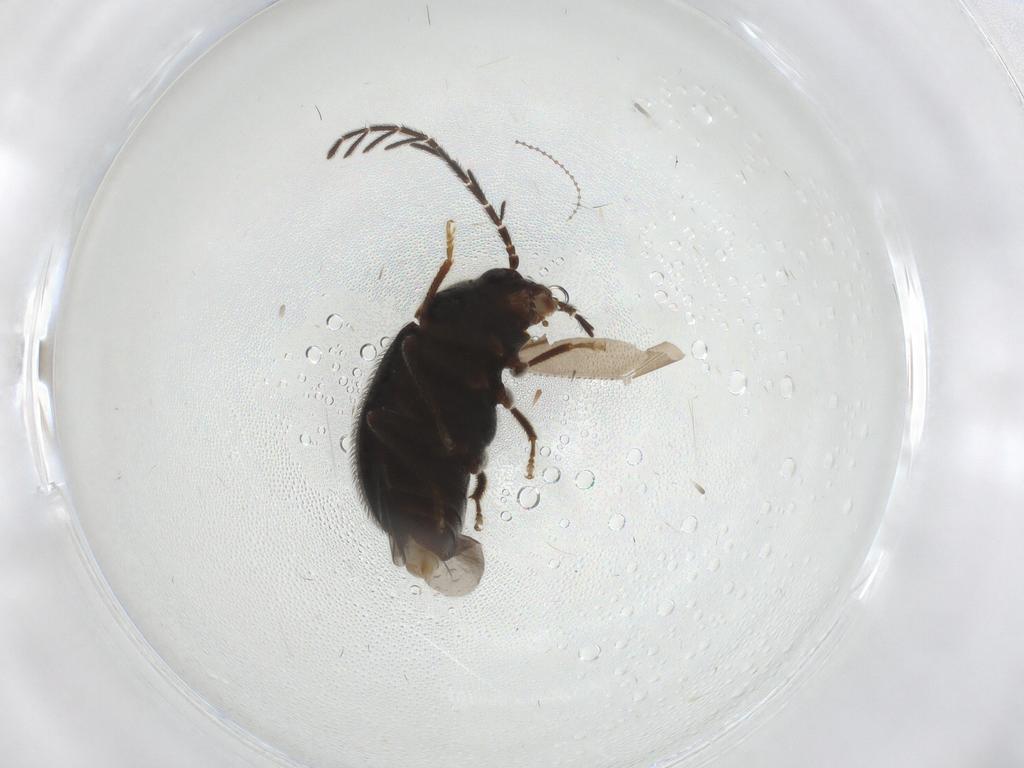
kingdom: Animalia
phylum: Arthropoda
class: Insecta
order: Coleoptera
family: Ptilodactylidae
